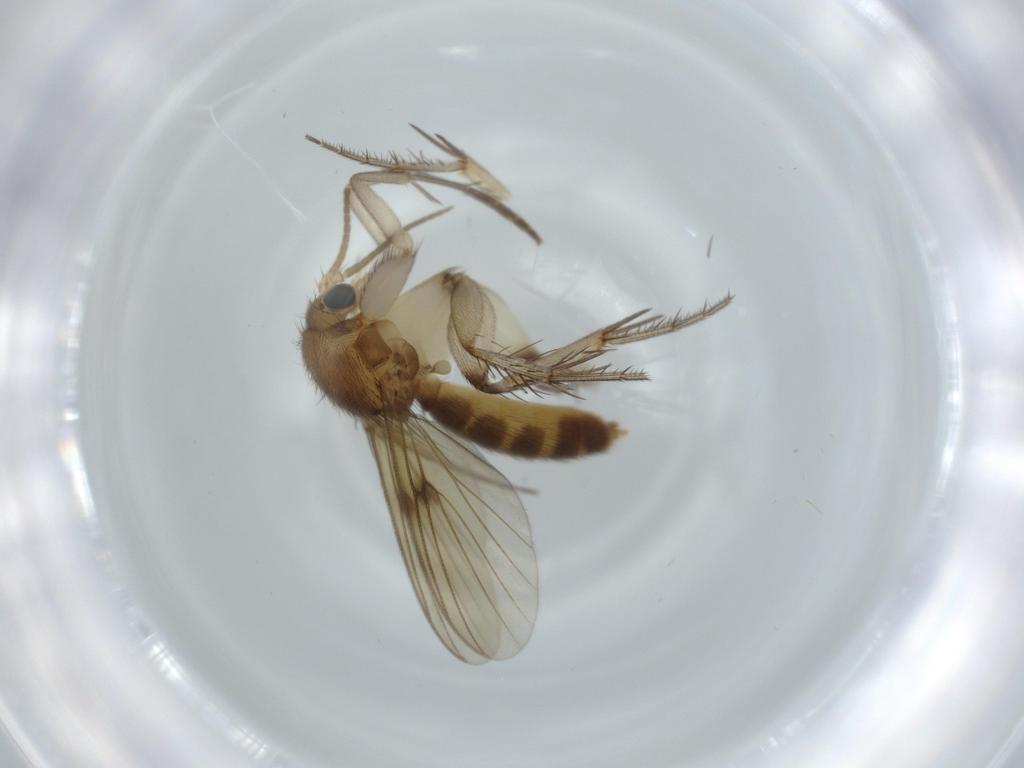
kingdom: Animalia
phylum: Arthropoda
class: Insecta
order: Diptera
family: Mycetophilidae
